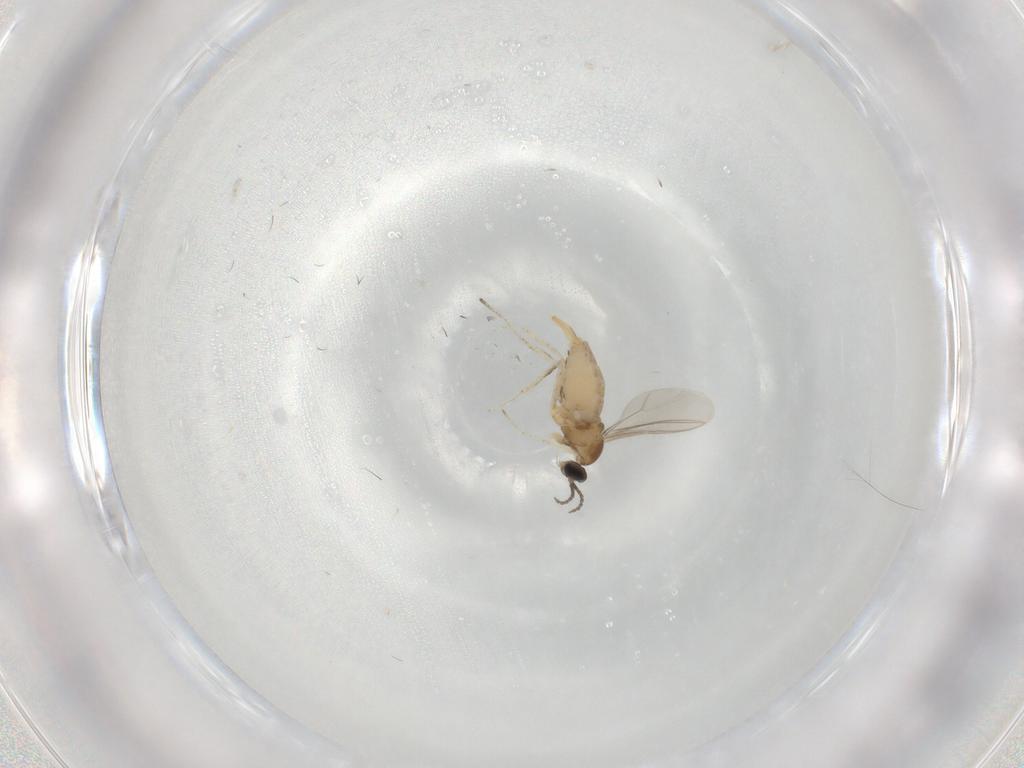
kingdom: Animalia
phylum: Arthropoda
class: Insecta
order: Diptera
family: Cecidomyiidae
